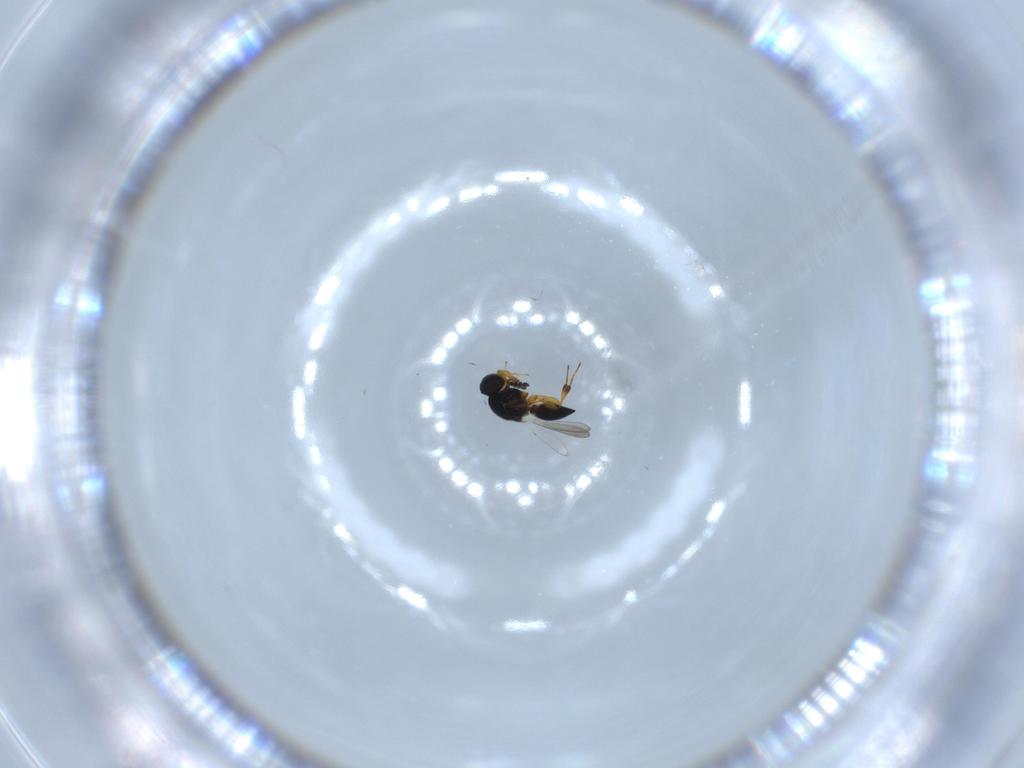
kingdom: Animalia
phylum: Arthropoda
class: Insecta
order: Hymenoptera
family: Platygastridae
